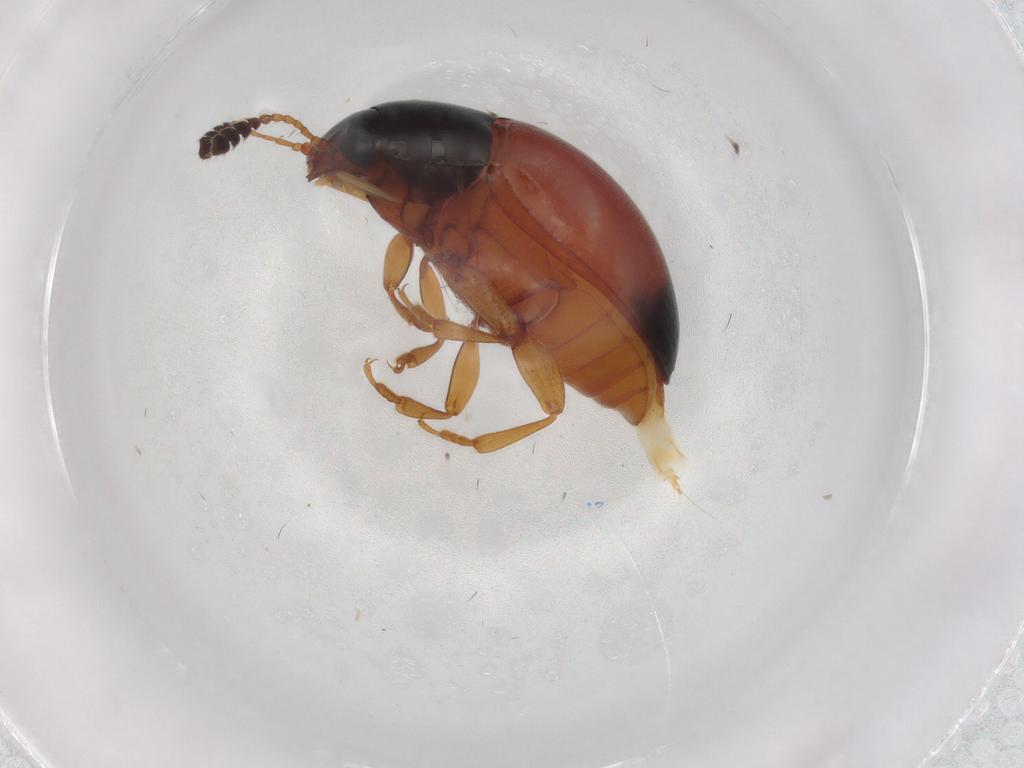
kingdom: Animalia
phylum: Arthropoda
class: Insecta
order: Coleoptera
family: Erotylidae
